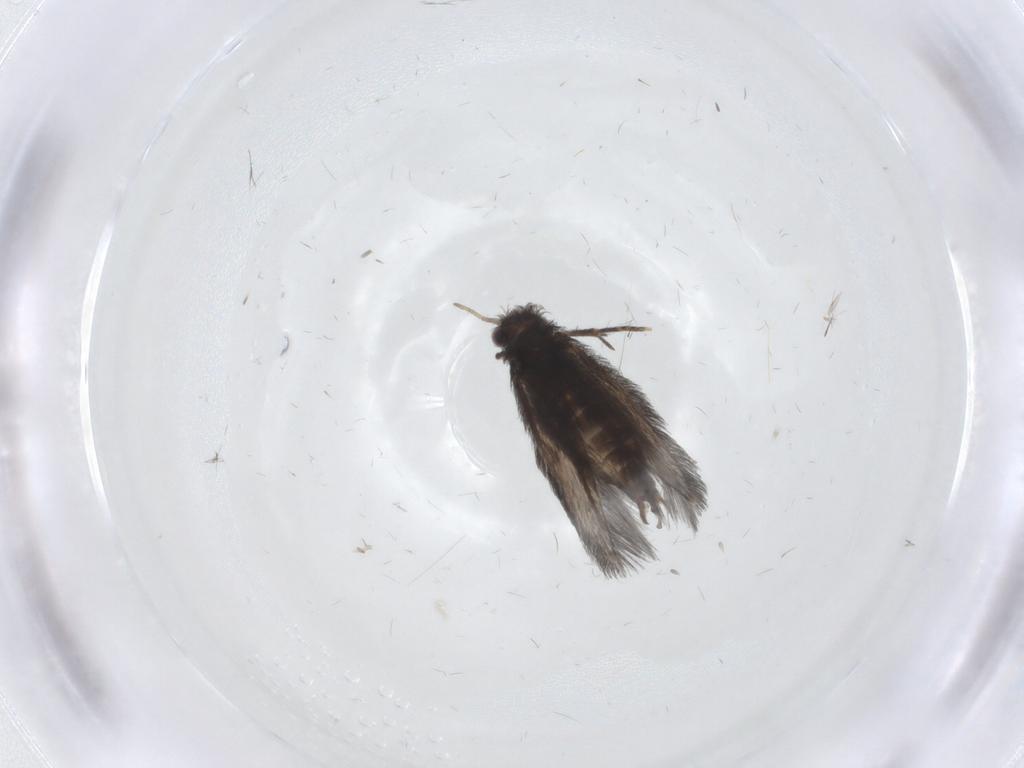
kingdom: Animalia
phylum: Arthropoda
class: Insecta
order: Trichoptera
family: Hydroptilidae
